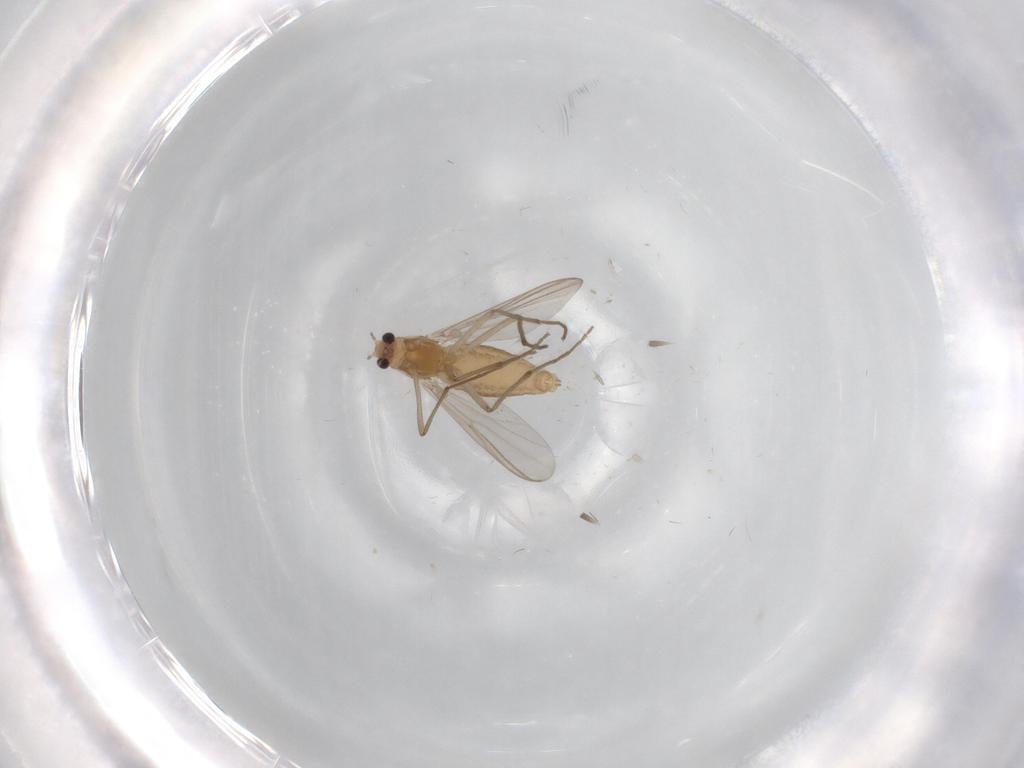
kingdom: Animalia
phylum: Arthropoda
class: Insecta
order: Diptera
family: Chironomidae
